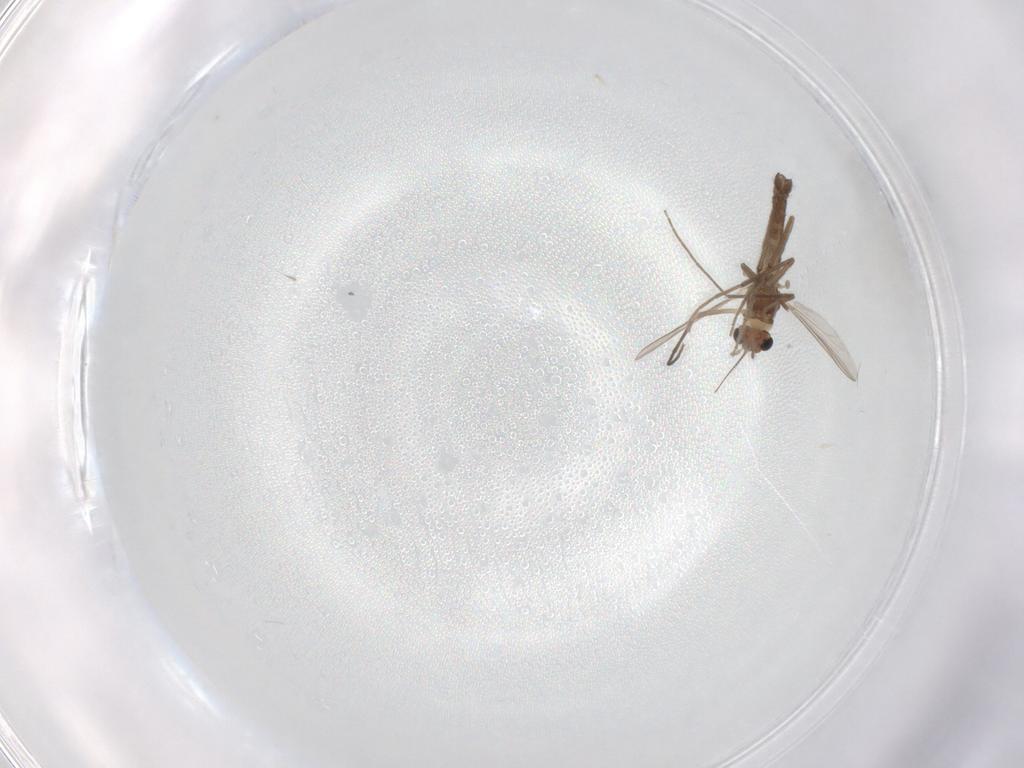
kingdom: Animalia
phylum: Arthropoda
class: Insecta
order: Diptera
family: Chironomidae
